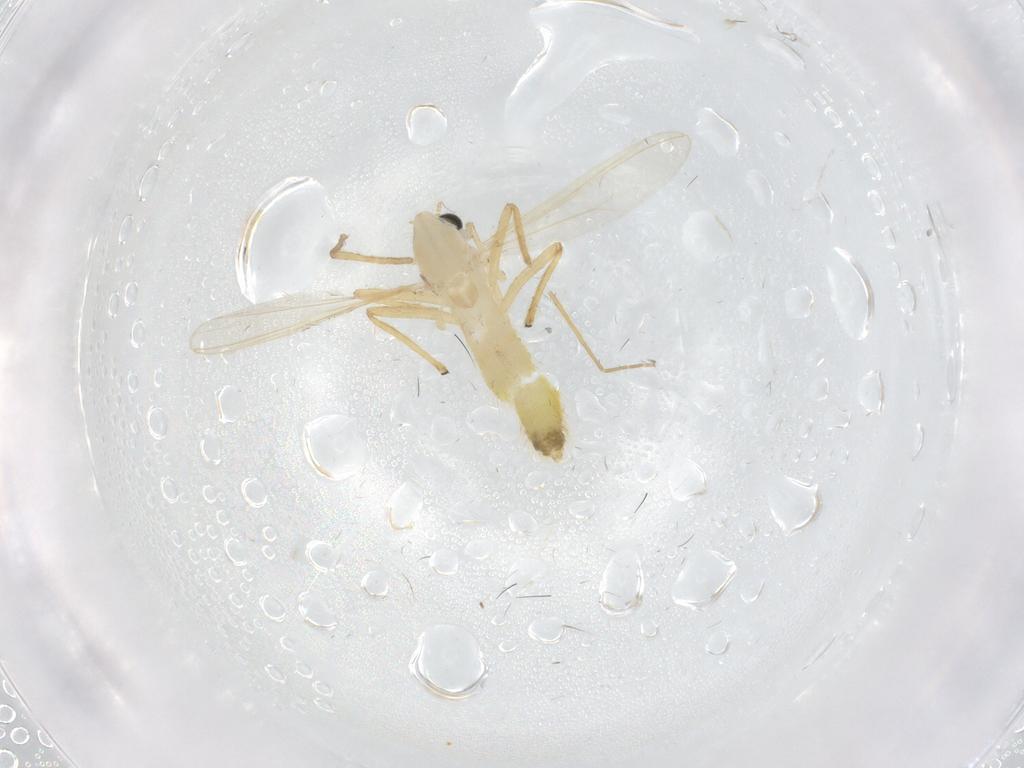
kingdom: Animalia
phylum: Arthropoda
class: Insecta
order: Diptera
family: Chironomidae
